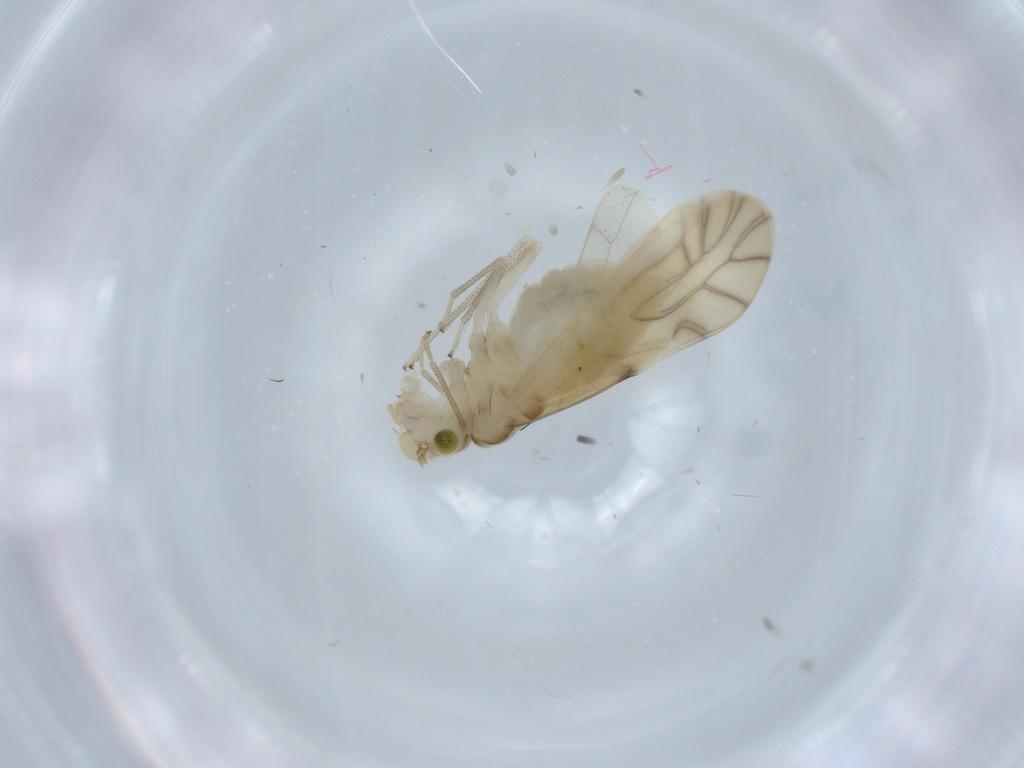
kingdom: Animalia
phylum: Arthropoda
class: Insecta
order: Psocodea
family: Caeciliusidae
